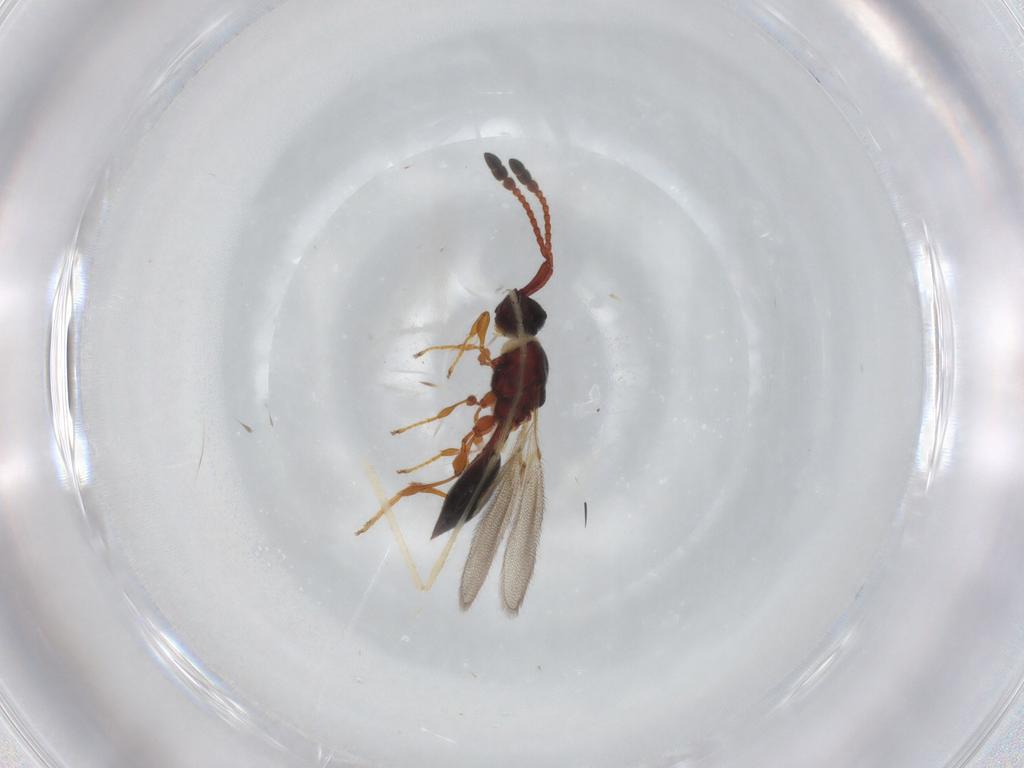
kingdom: Animalia
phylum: Arthropoda
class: Insecta
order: Hymenoptera
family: Diapriidae
